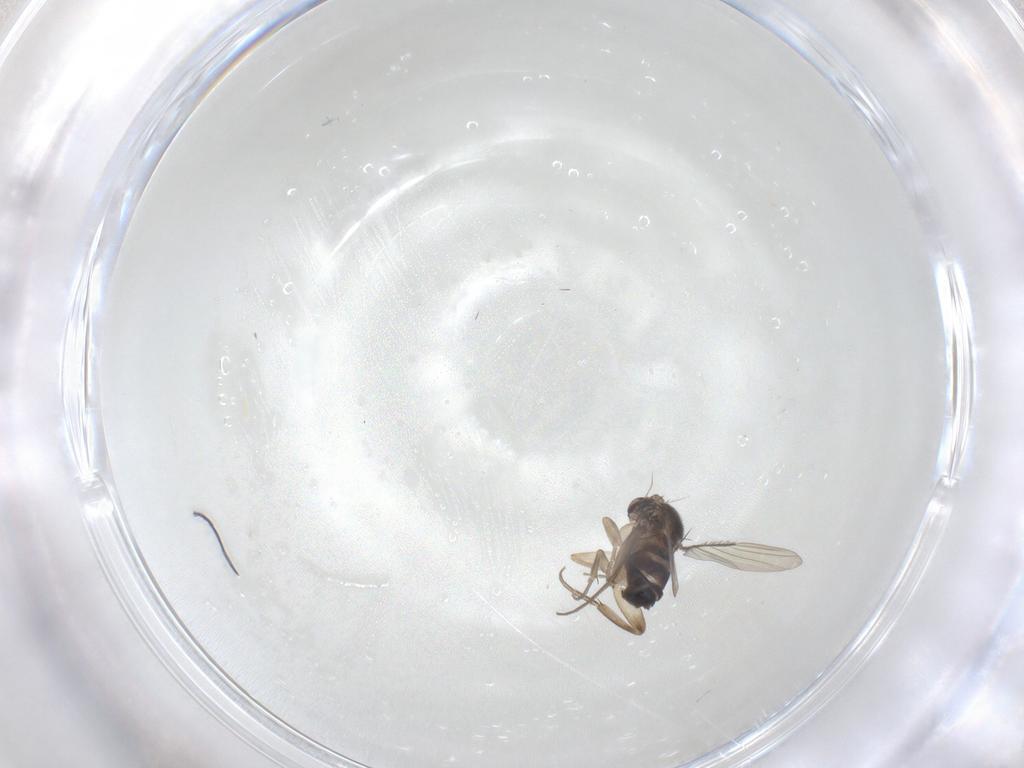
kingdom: Animalia
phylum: Arthropoda
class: Insecta
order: Diptera
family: Phoridae
